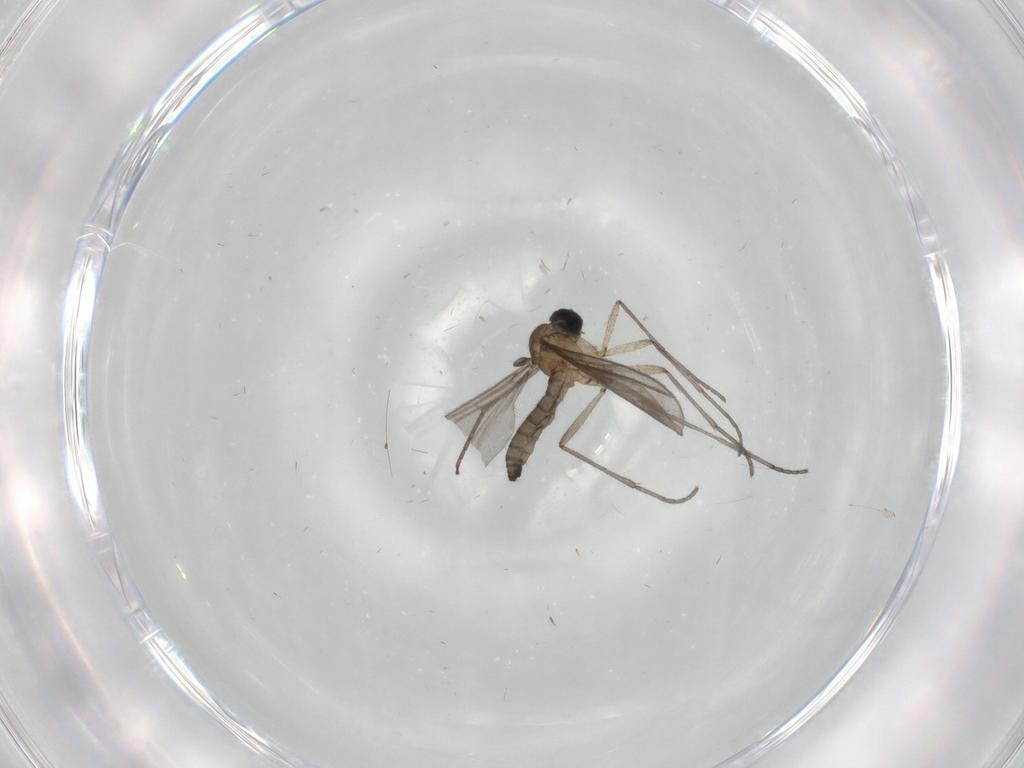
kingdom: Animalia
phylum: Arthropoda
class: Insecta
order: Diptera
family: Sciaridae
